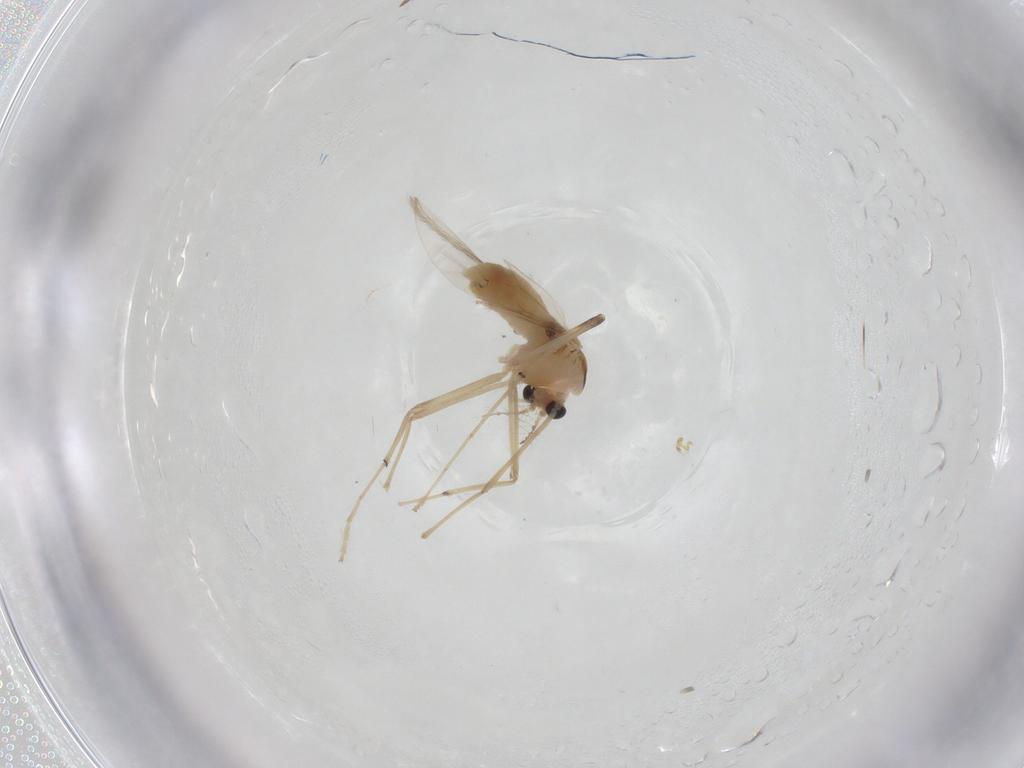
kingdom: Animalia
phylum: Arthropoda
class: Insecta
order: Diptera
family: Chironomidae
